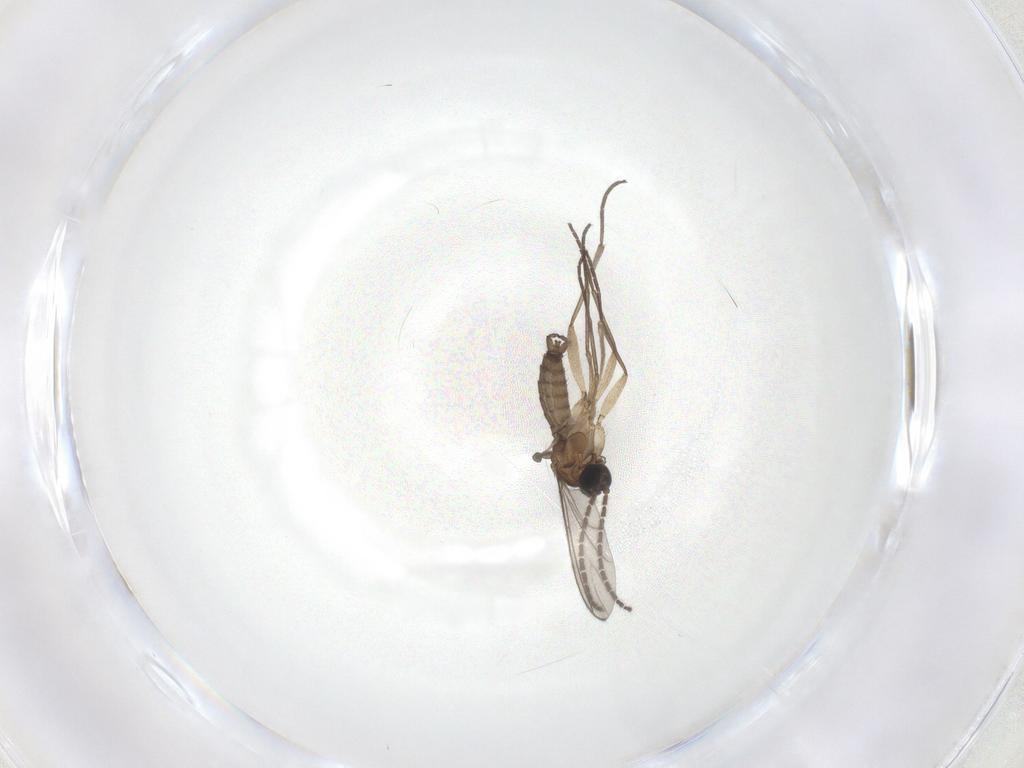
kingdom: Animalia
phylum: Arthropoda
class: Insecta
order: Diptera
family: Sciaridae
